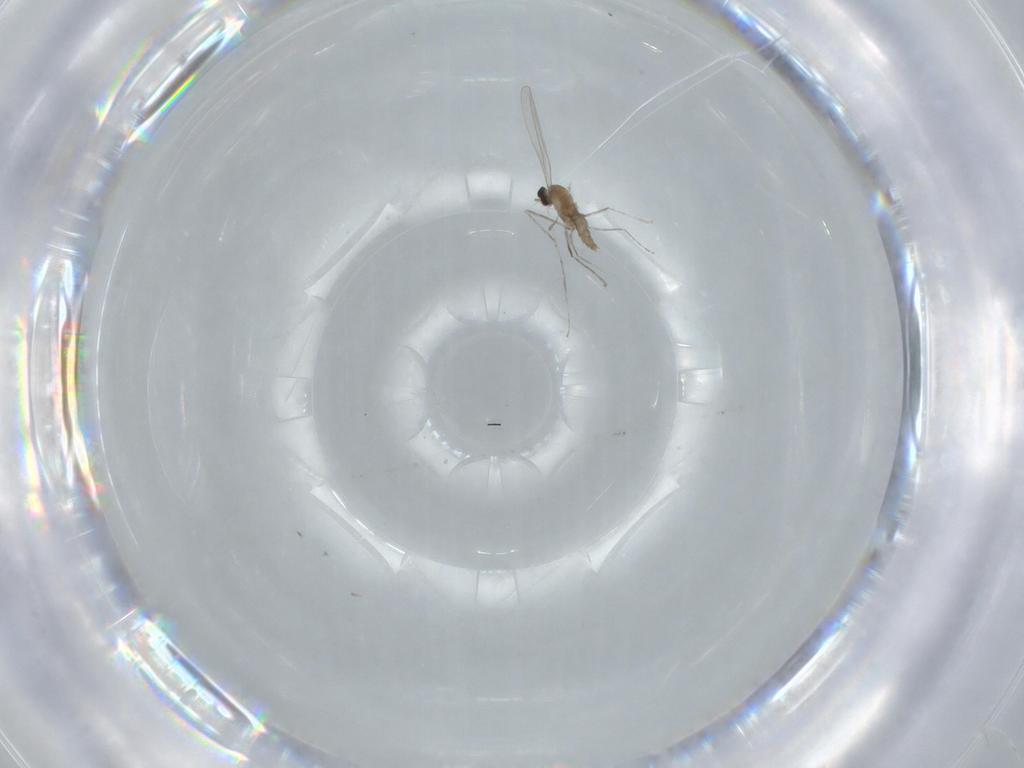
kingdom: Animalia
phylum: Arthropoda
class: Insecta
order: Diptera
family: Cecidomyiidae
